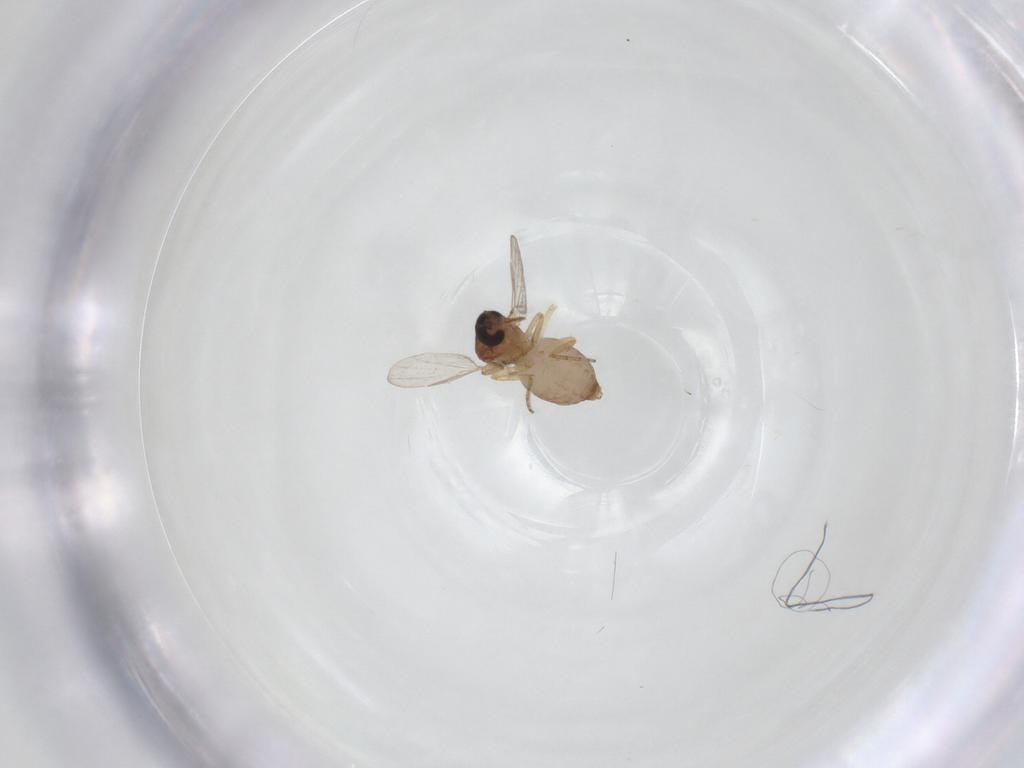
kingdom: Animalia
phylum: Arthropoda
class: Insecta
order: Diptera
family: Ceratopogonidae
